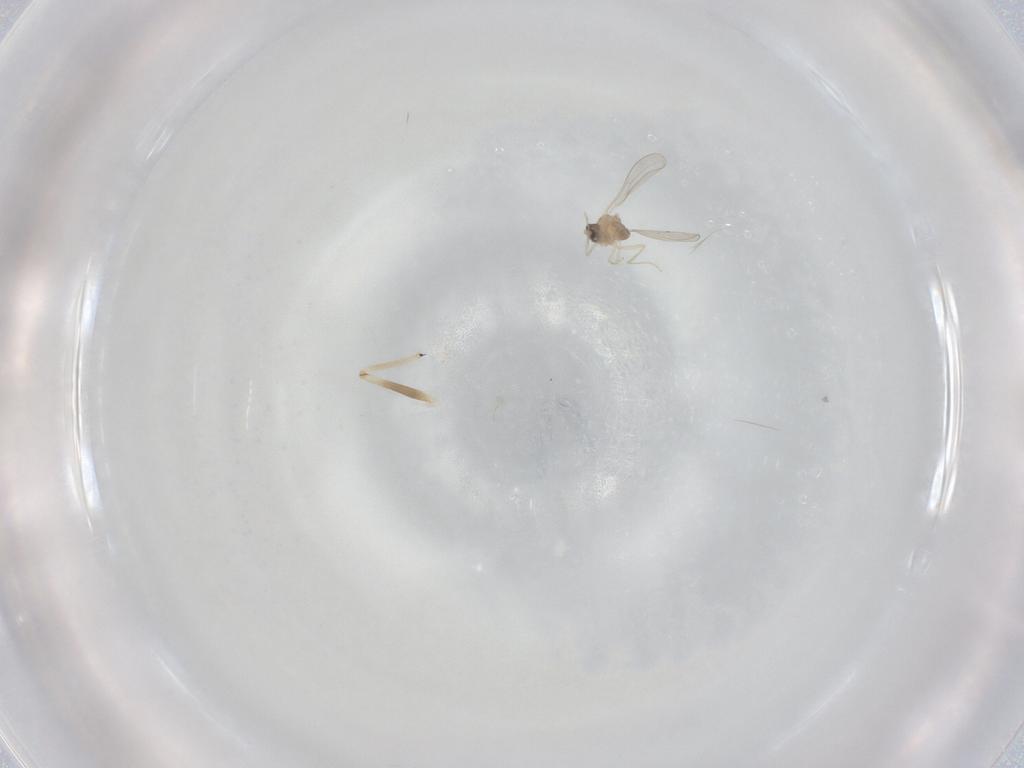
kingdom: Animalia
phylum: Arthropoda
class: Insecta
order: Diptera
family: Cecidomyiidae
